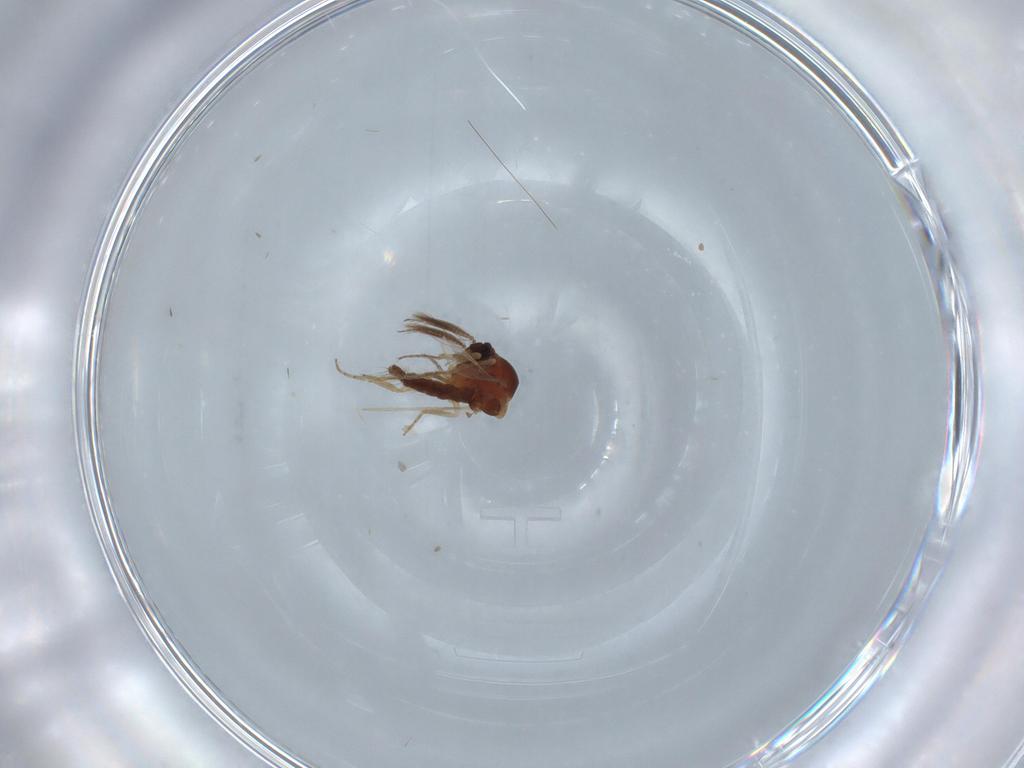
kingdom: Animalia
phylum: Arthropoda
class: Insecta
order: Diptera
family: Ceratopogonidae
